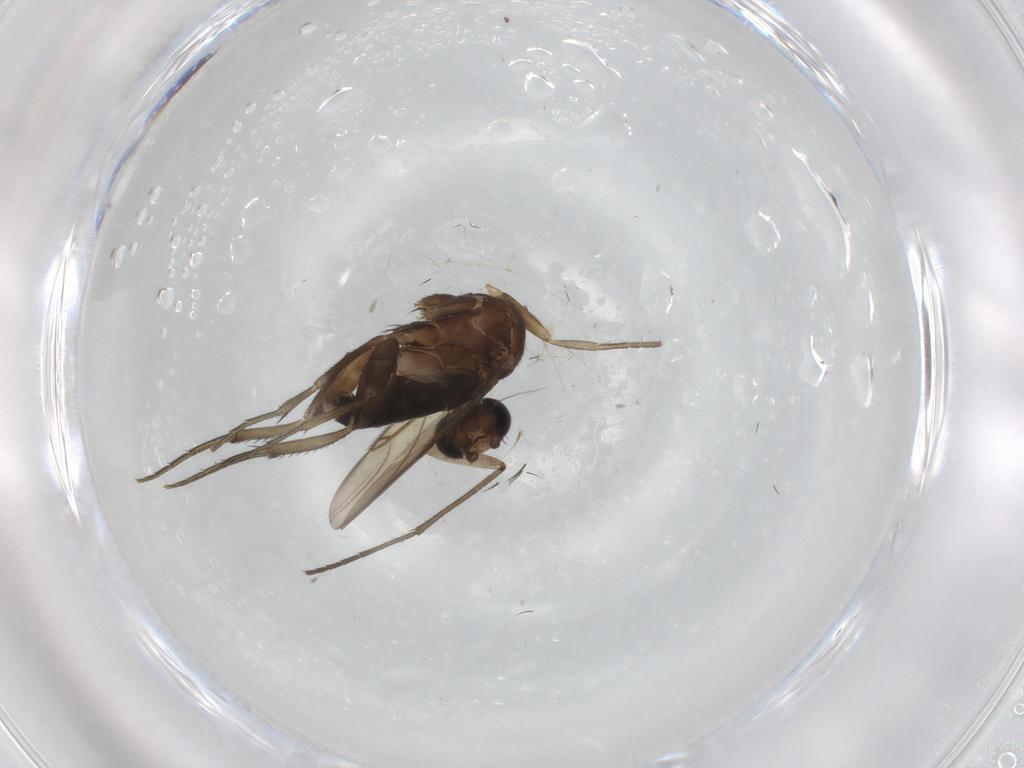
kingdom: Animalia
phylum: Arthropoda
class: Insecta
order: Diptera
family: Phoridae
